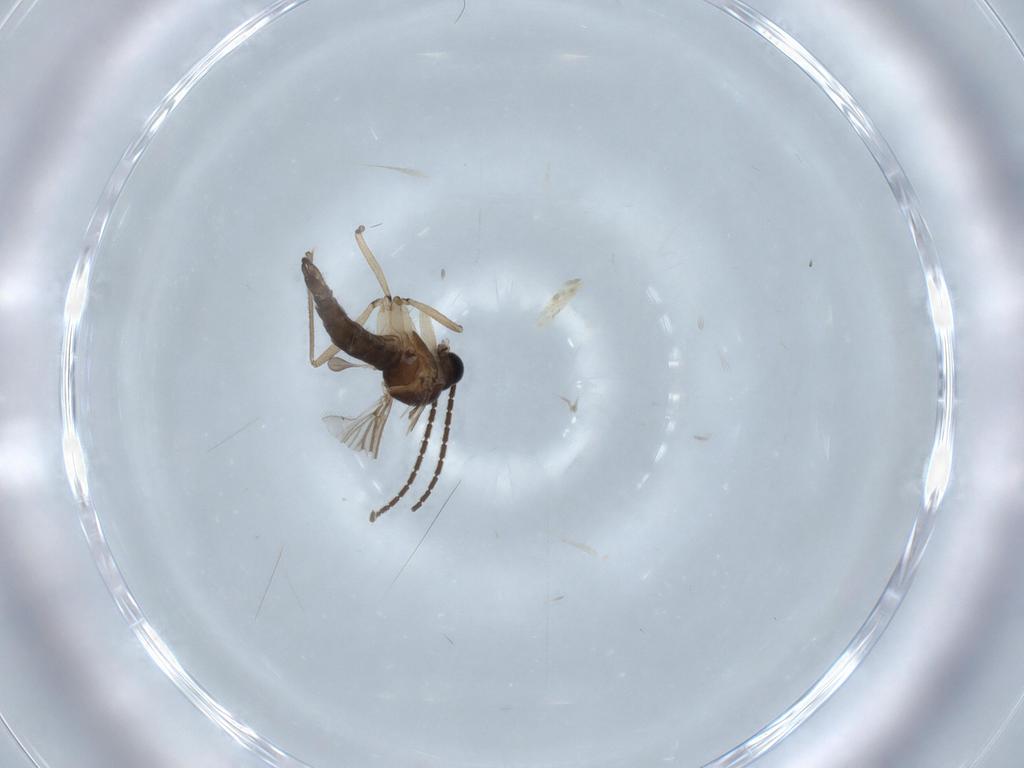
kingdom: Animalia
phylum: Arthropoda
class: Insecta
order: Diptera
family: Sciaridae
